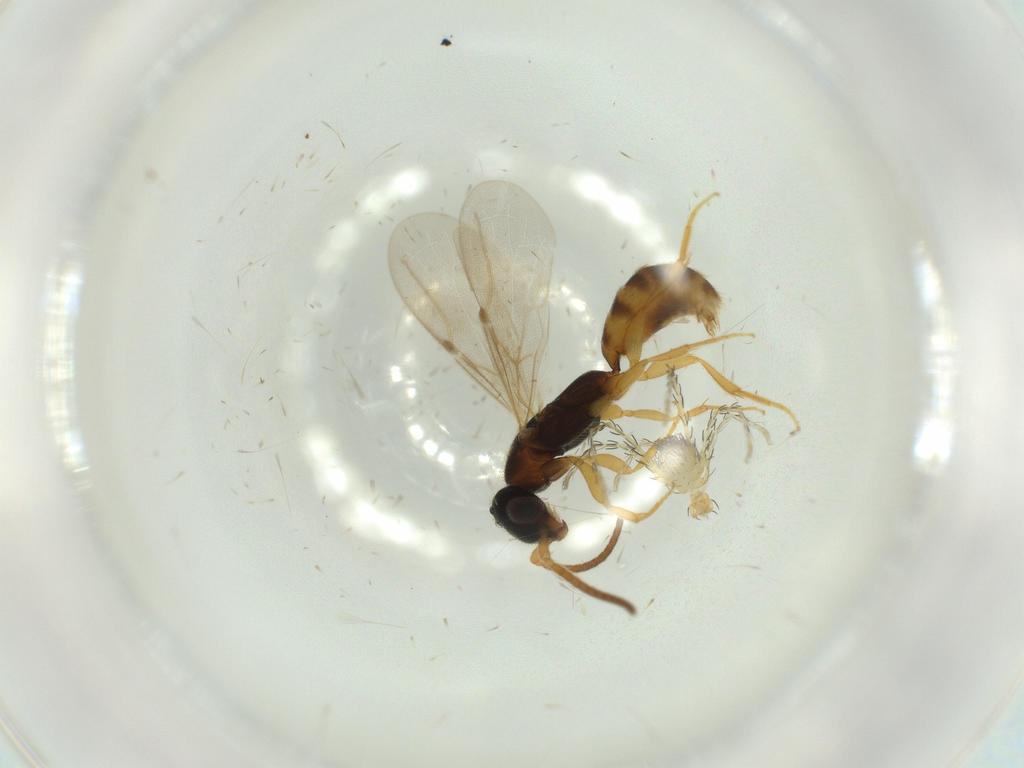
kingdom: Animalia
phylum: Arthropoda
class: Insecta
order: Hymenoptera
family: Bethylidae
